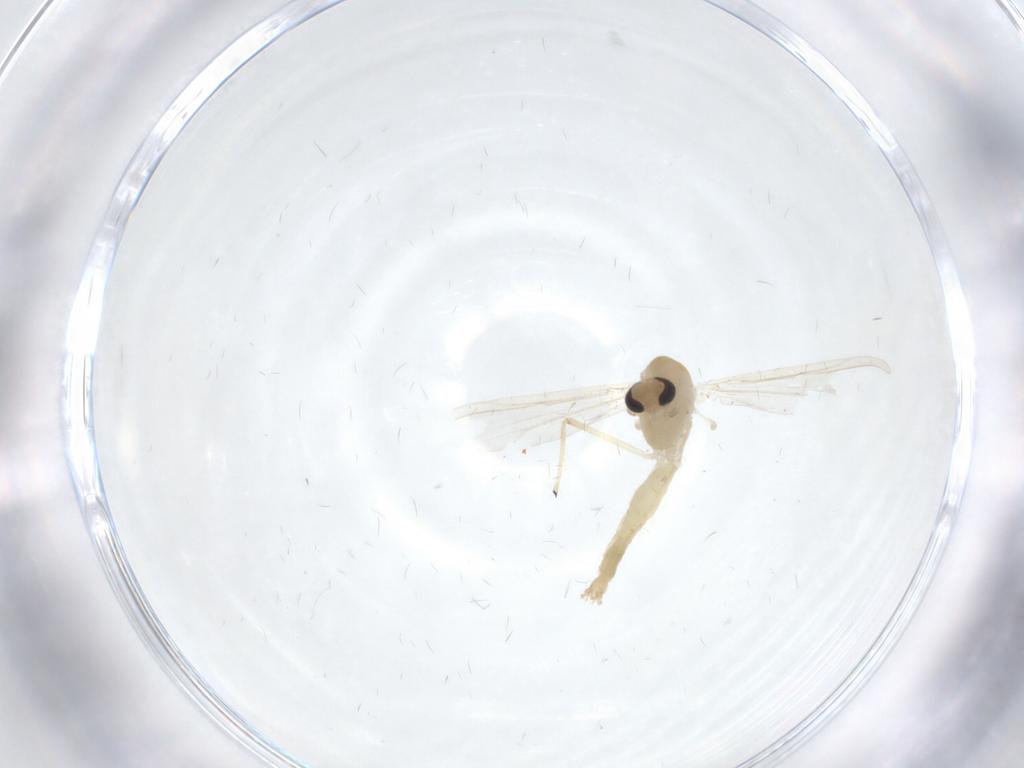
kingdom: Animalia
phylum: Arthropoda
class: Insecta
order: Diptera
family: Chironomidae
